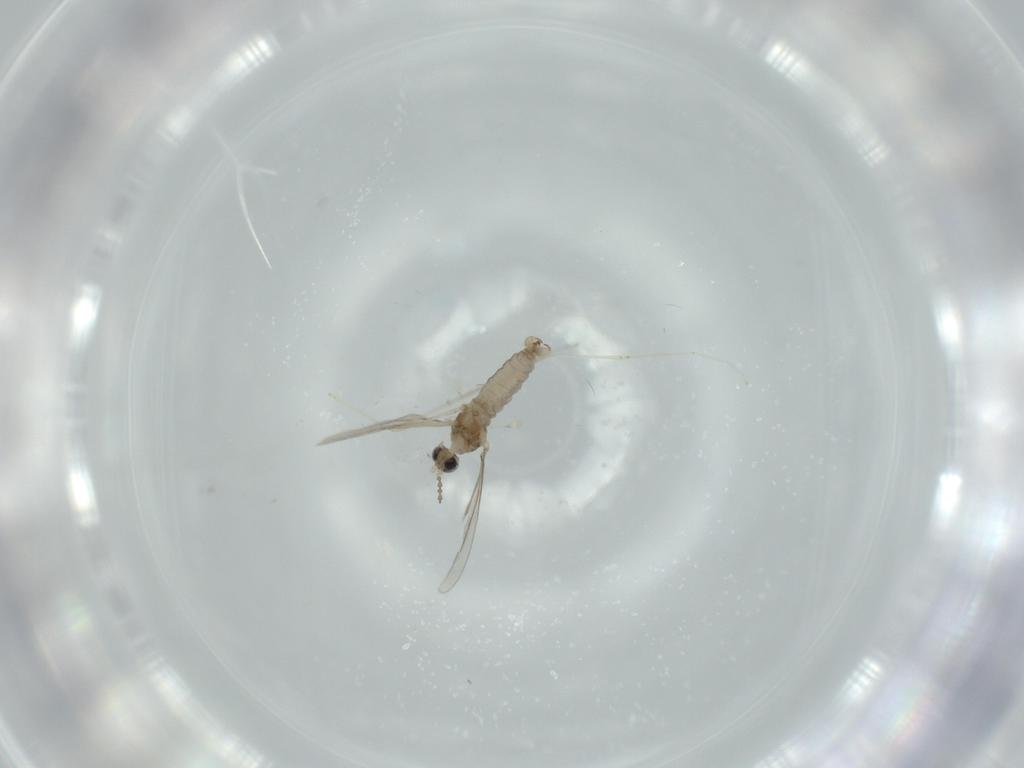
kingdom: Animalia
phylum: Arthropoda
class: Insecta
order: Diptera
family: Cecidomyiidae
